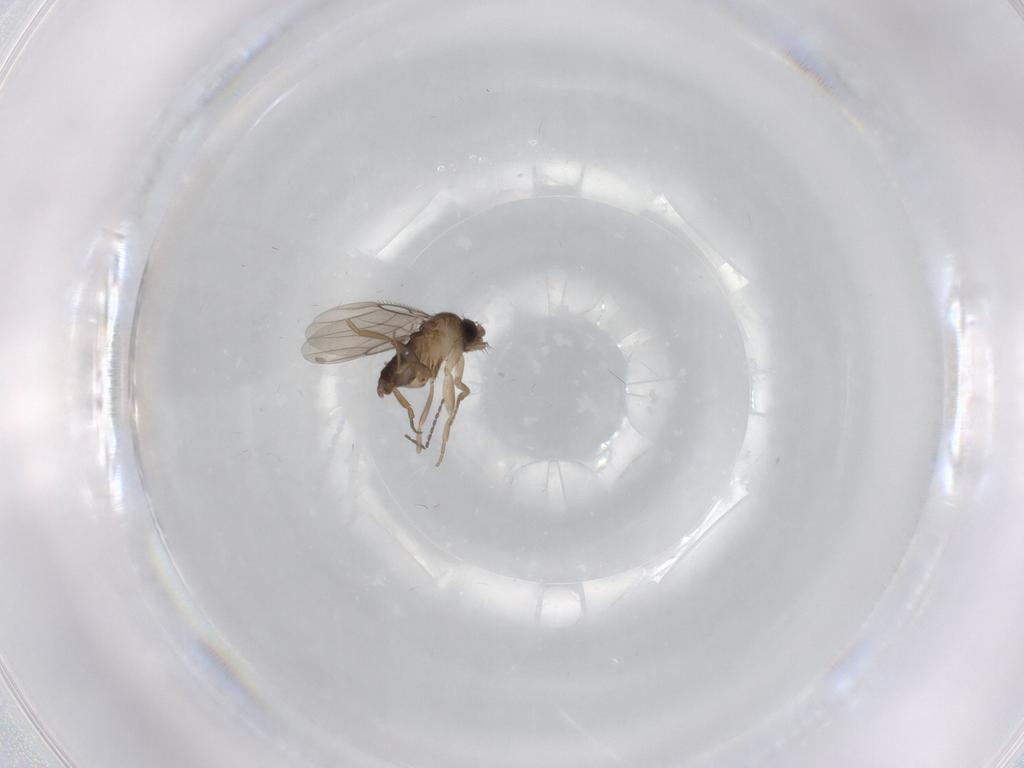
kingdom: Animalia
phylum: Arthropoda
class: Insecta
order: Diptera
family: Phoridae
